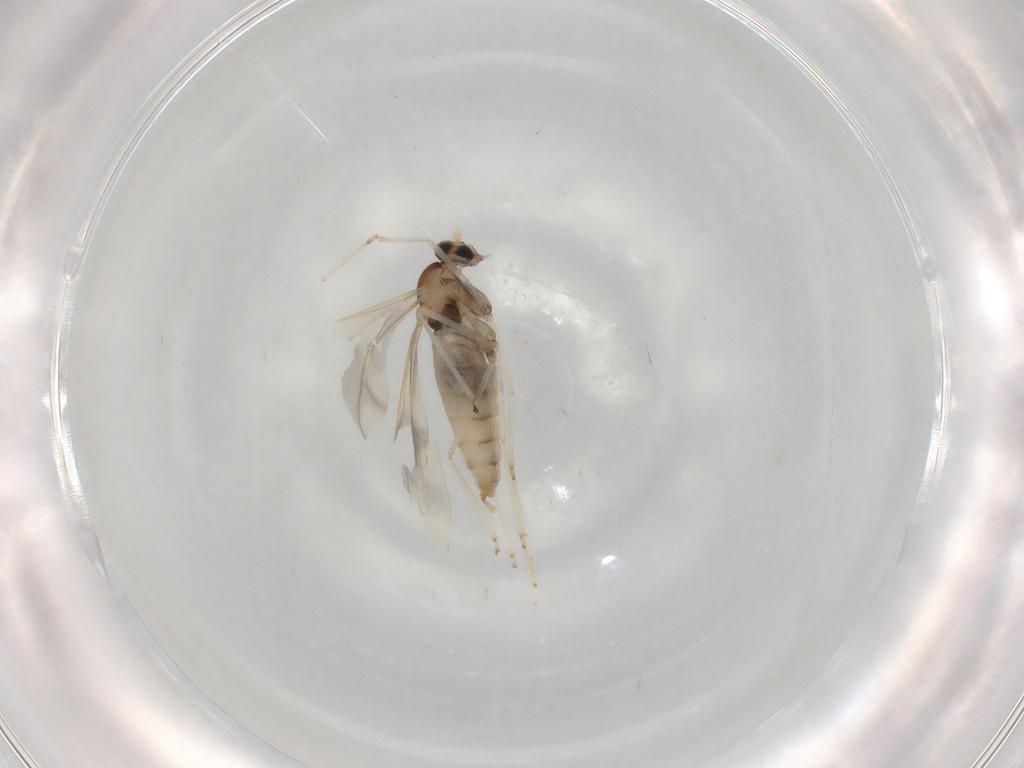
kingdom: Animalia
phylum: Arthropoda
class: Insecta
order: Diptera
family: Cecidomyiidae
